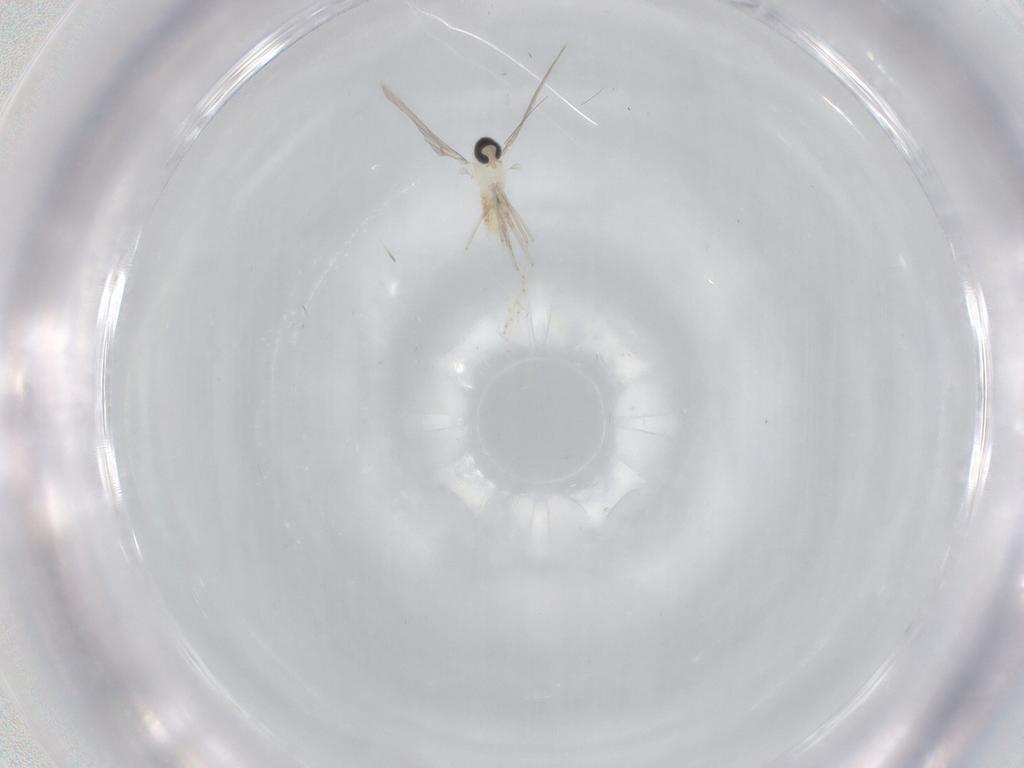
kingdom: Animalia
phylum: Arthropoda
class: Insecta
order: Diptera
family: Cecidomyiidae
